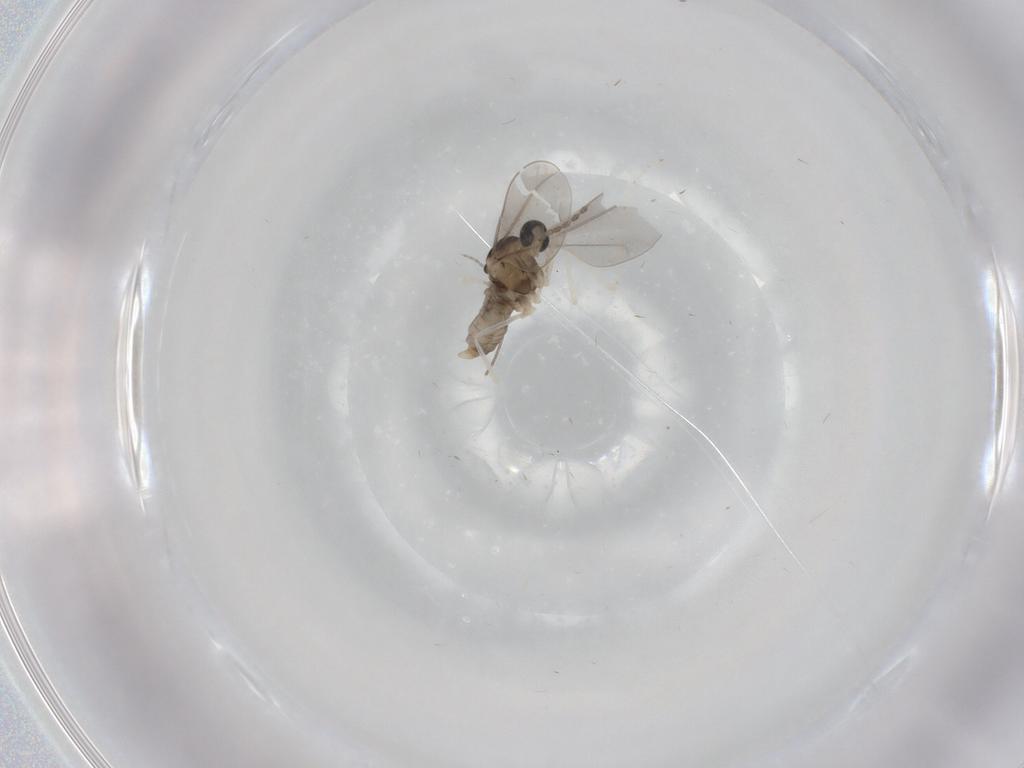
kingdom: Animalia
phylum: Arthropoda
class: Insecta
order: Diptera
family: Cecidomyiidae
